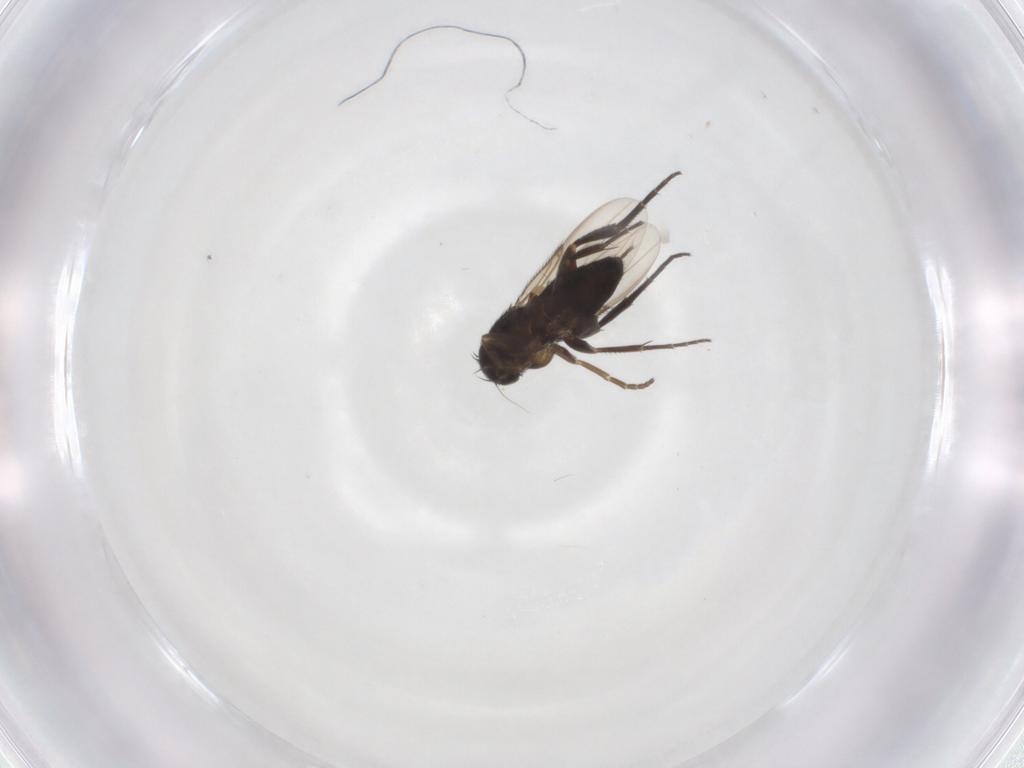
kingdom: Animalia
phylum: Arthropoda
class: Insecta
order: Diptera
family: Phoridae
